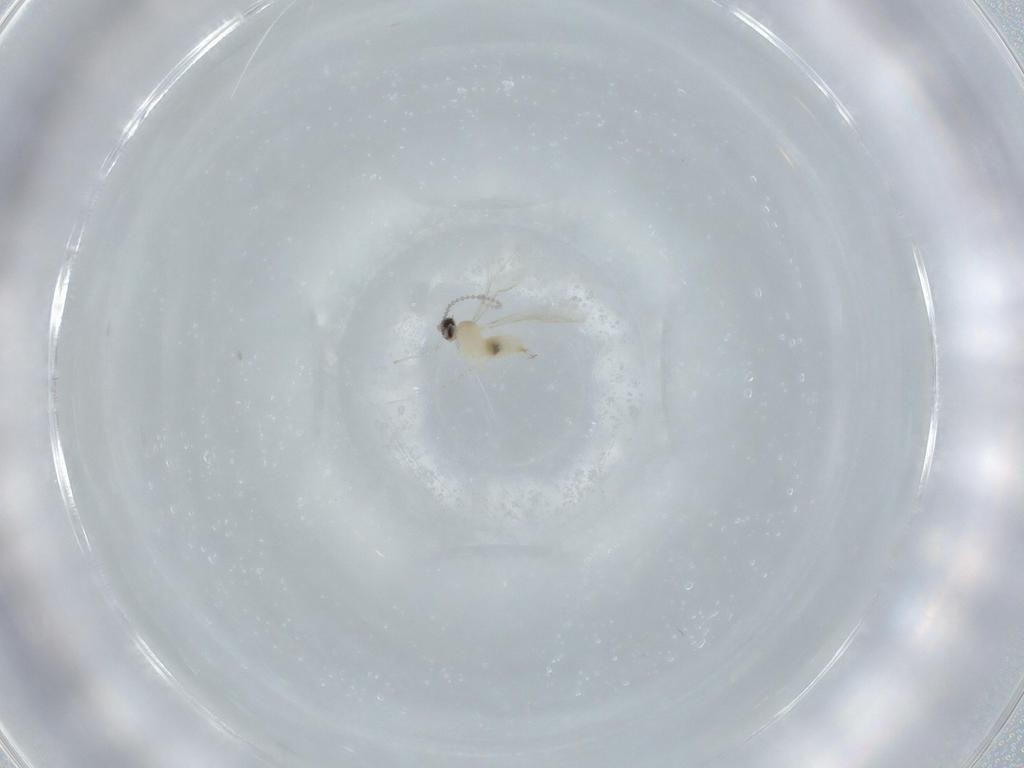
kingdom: Animalia
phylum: Arthropoda
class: Insecta
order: Diptera
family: Cecidomyiidae
